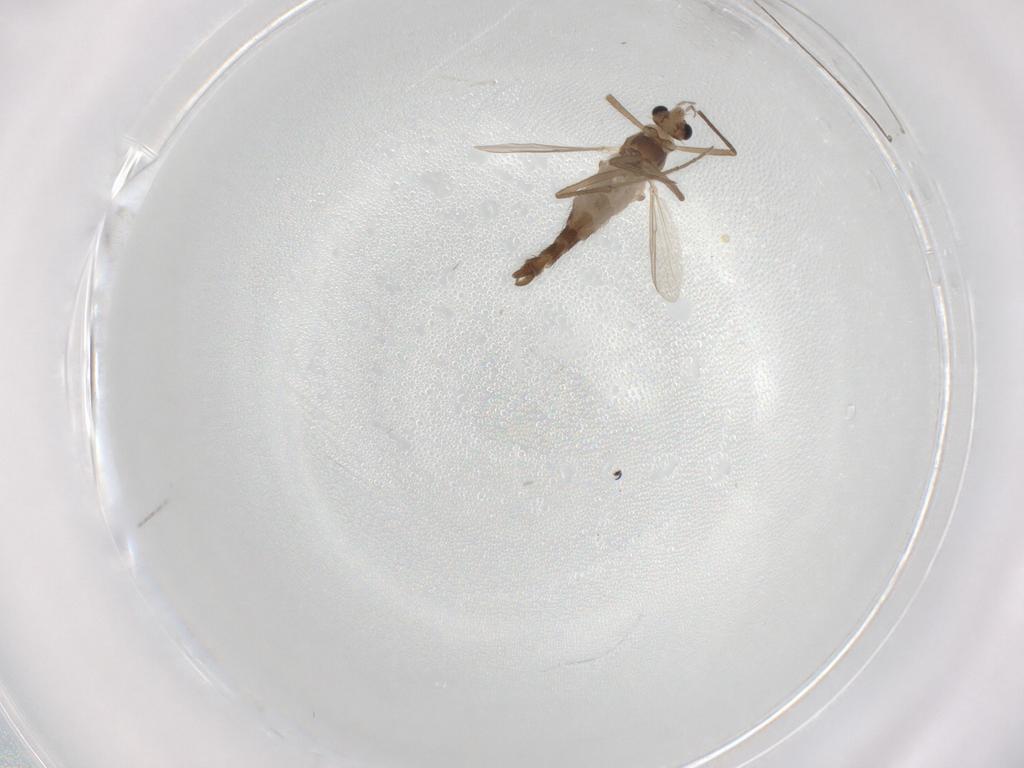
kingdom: Animalia
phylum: Arthropoda
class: Insecta
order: Diptera
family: Chironomidae
